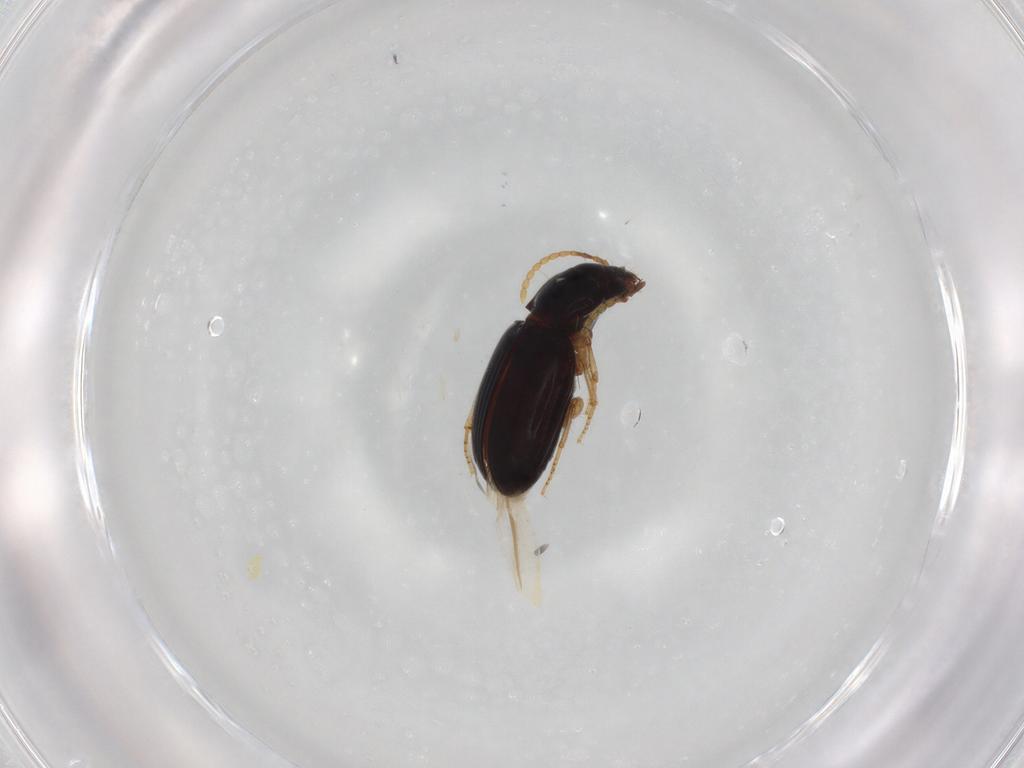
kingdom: Animalia
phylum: Arthropoda
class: Insecta
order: Coleoptera
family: Carabidae
